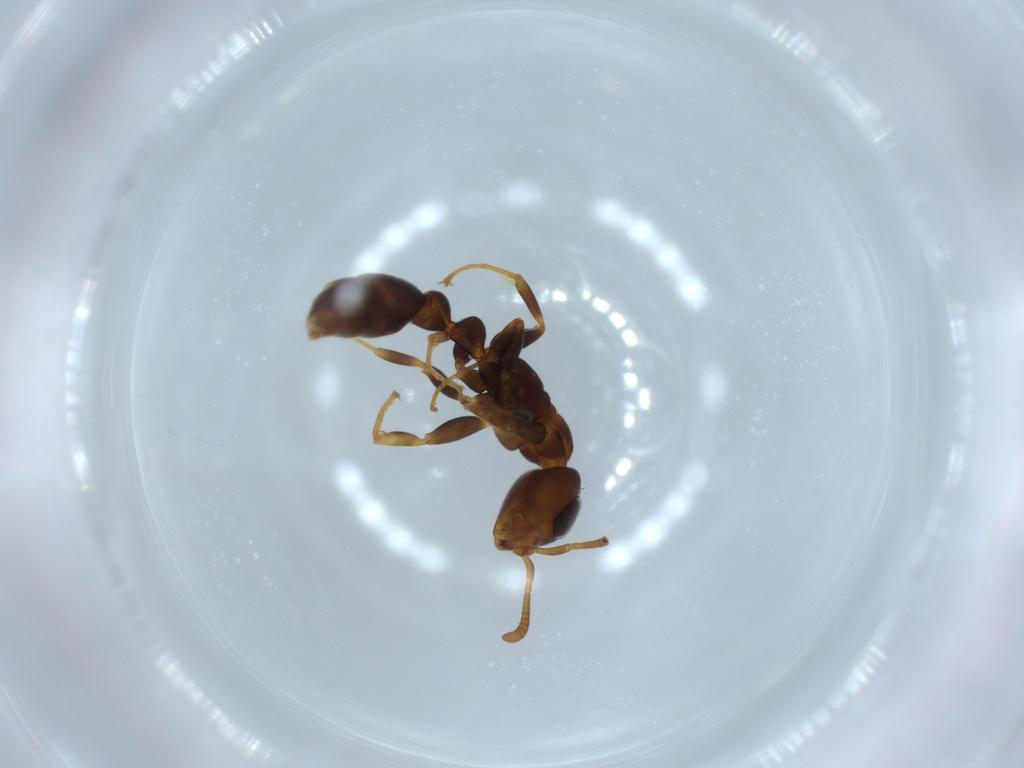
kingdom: Animalia
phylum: Arthropoda
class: Insecta
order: Hymenoptera
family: Formicidae
